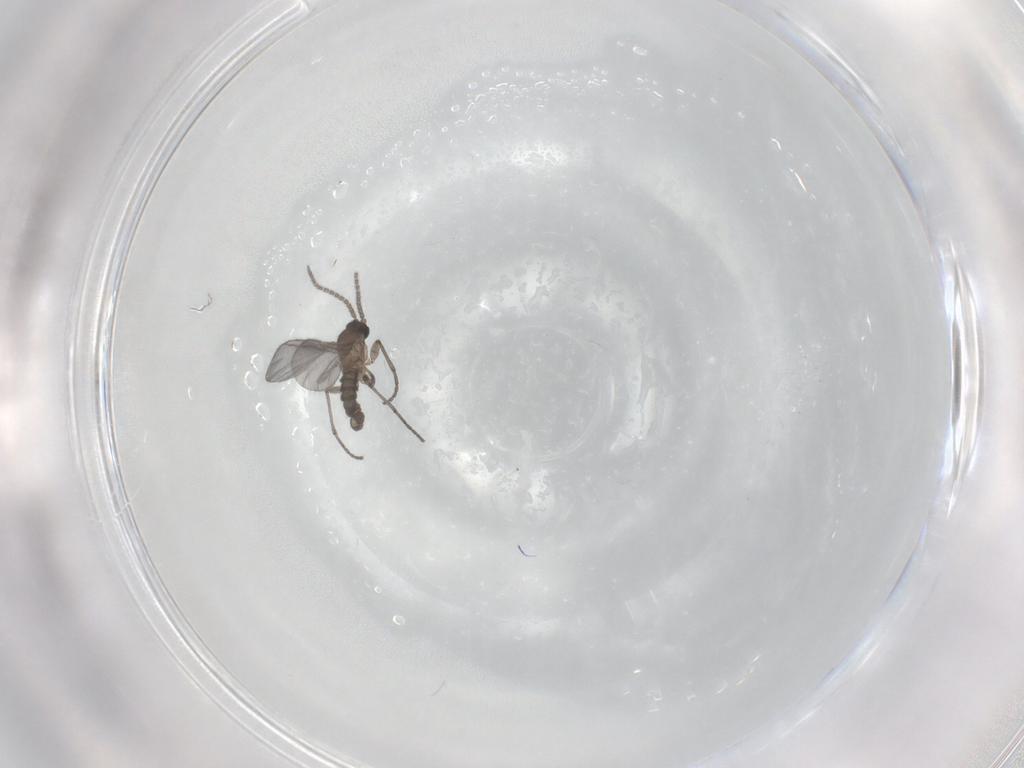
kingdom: Animalia
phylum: Arthropoda
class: Insecta
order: Diptera
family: Sciaridae
